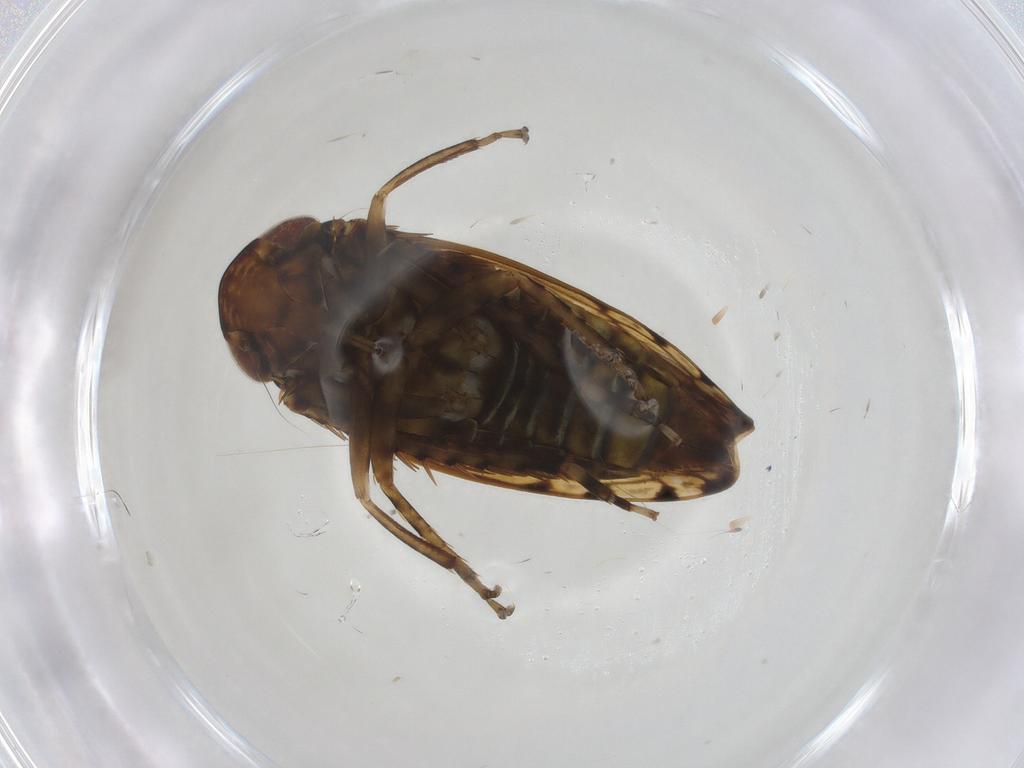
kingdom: Animalia
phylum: Arthropoda
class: Insecta
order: Hemiptera
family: Cicadellidae
